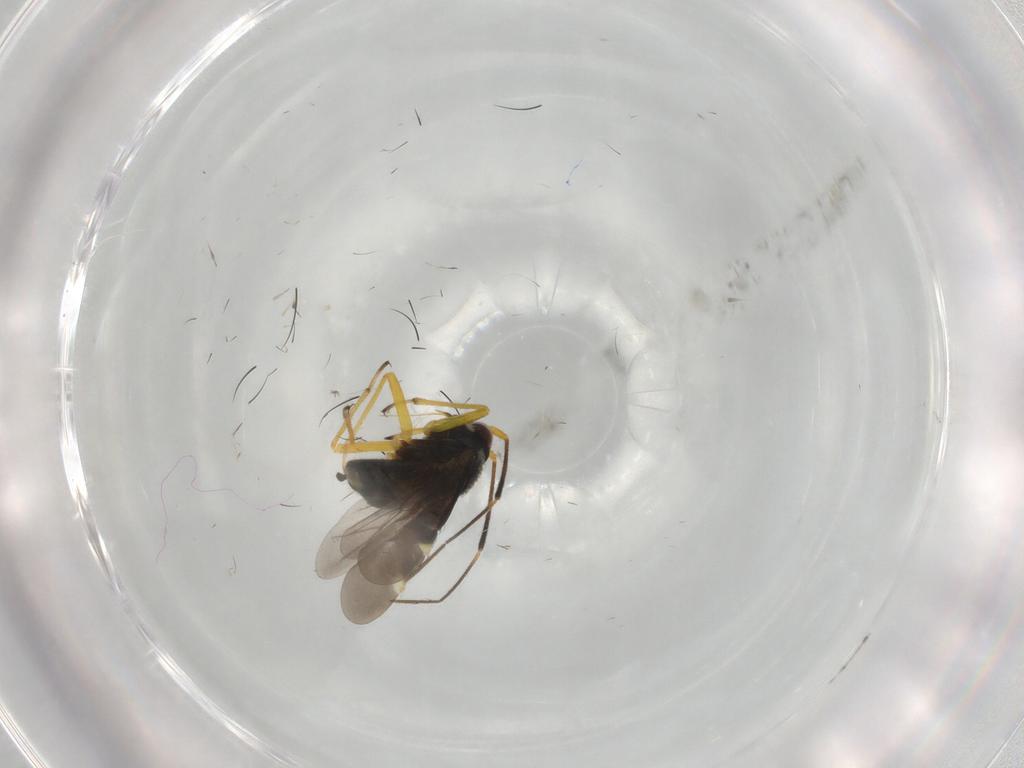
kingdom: Animalia
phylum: Arthropoda
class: Insecta
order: Hemiptera
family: Miridae
